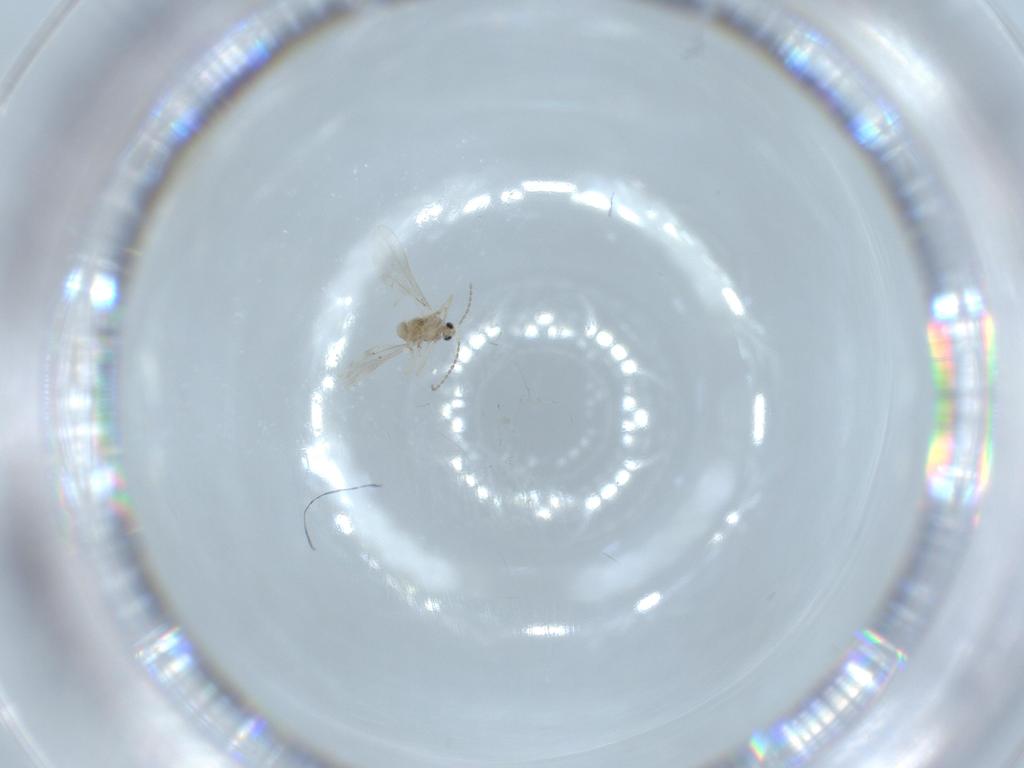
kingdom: Animalia
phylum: Arthropoda
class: Insecta
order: Diptera
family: Cecidomyiidae
